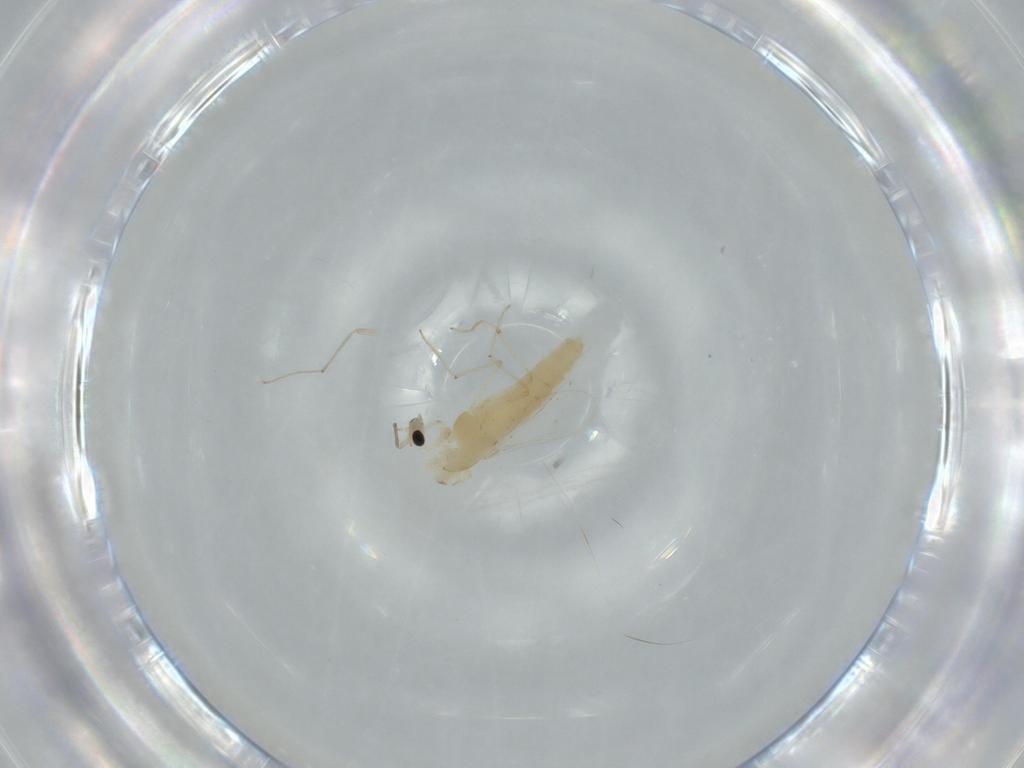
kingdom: Animalia
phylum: Arthropoda
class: Insecta
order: Diptera
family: Chironomidae
